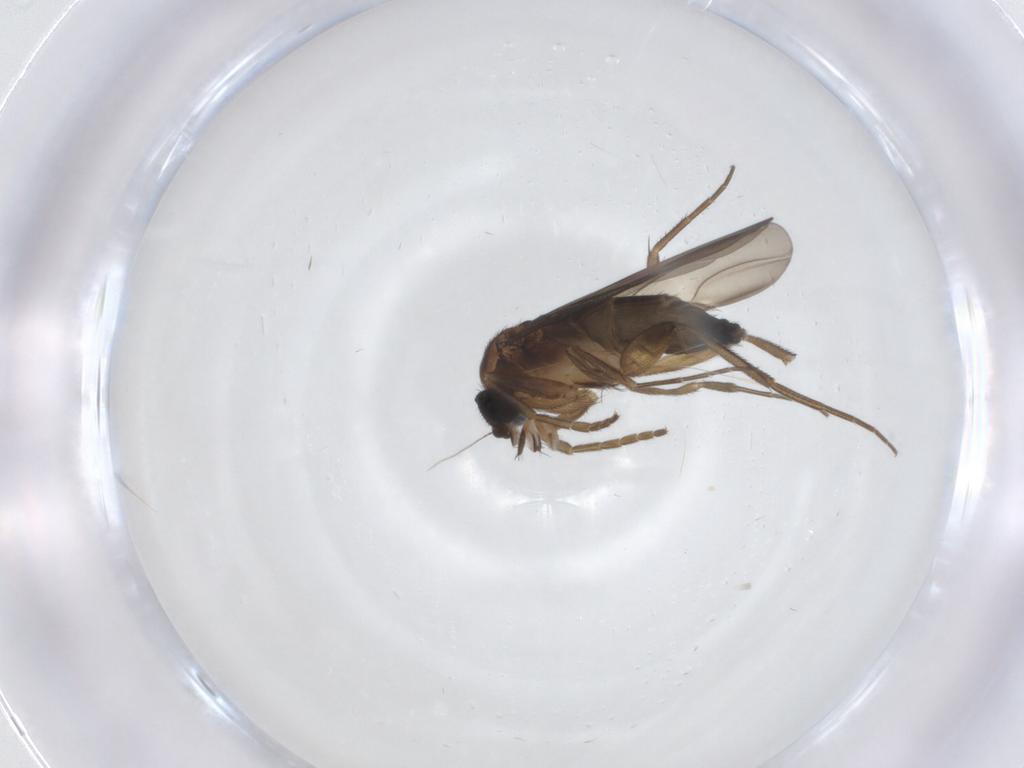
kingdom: Animalia
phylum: Arthropoda
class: Insecta
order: Diptera
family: Phoridae
